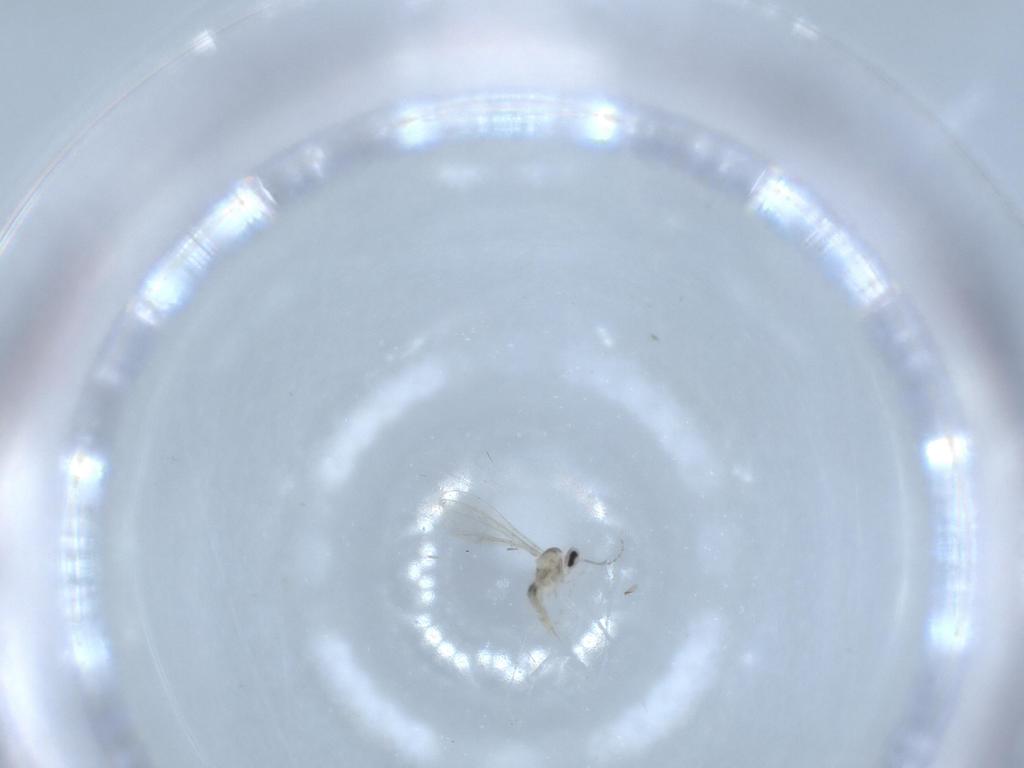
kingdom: Animalia
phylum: Arthropoda
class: Insecta
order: Diptera
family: Cecidomyiidae
